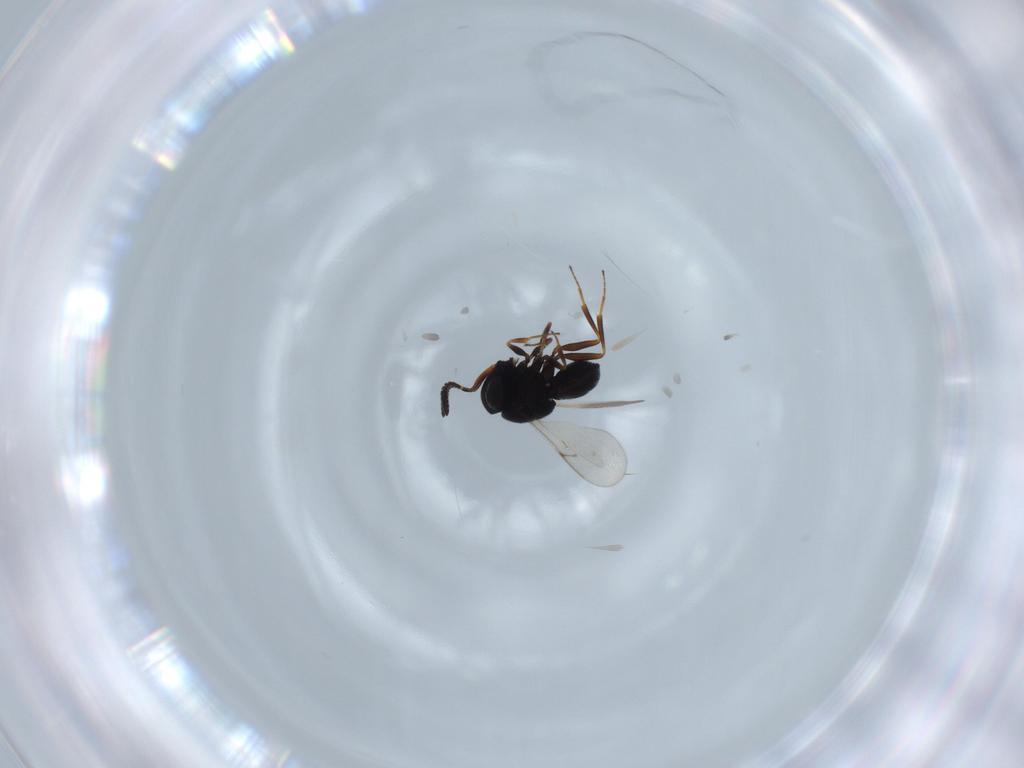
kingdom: Animalia
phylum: Arthropoda
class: Insecta
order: Hymenoptera
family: Scelionidae
